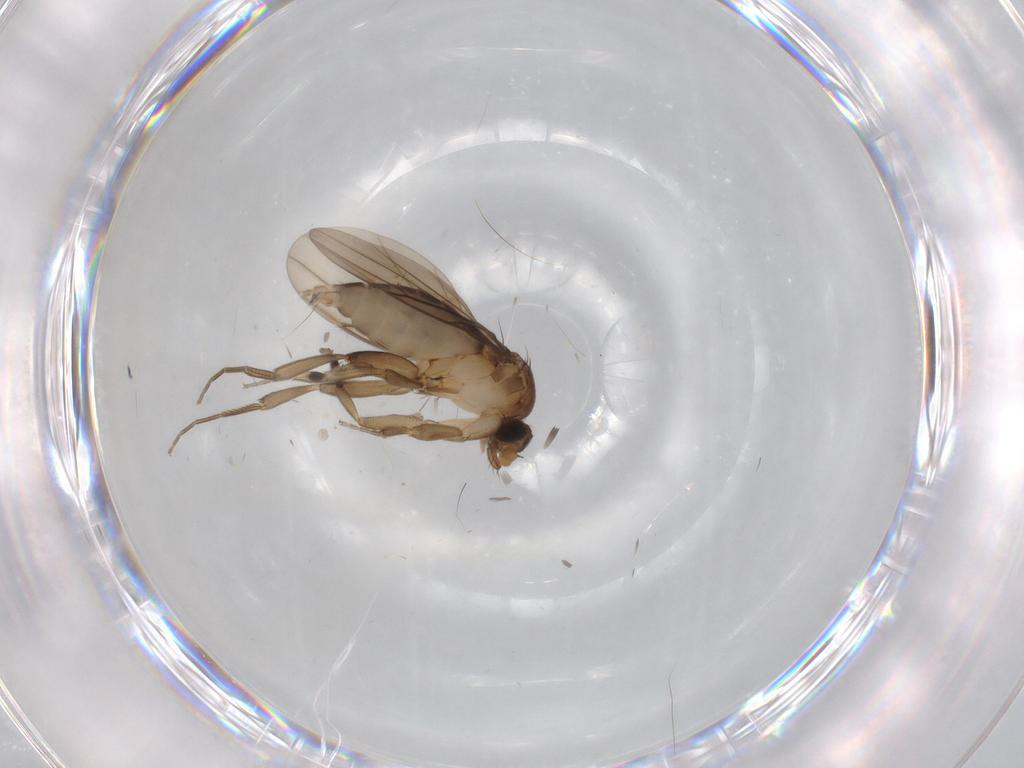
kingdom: Animalia
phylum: Arthropoda
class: Insecta
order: Diptera
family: Phoridae
